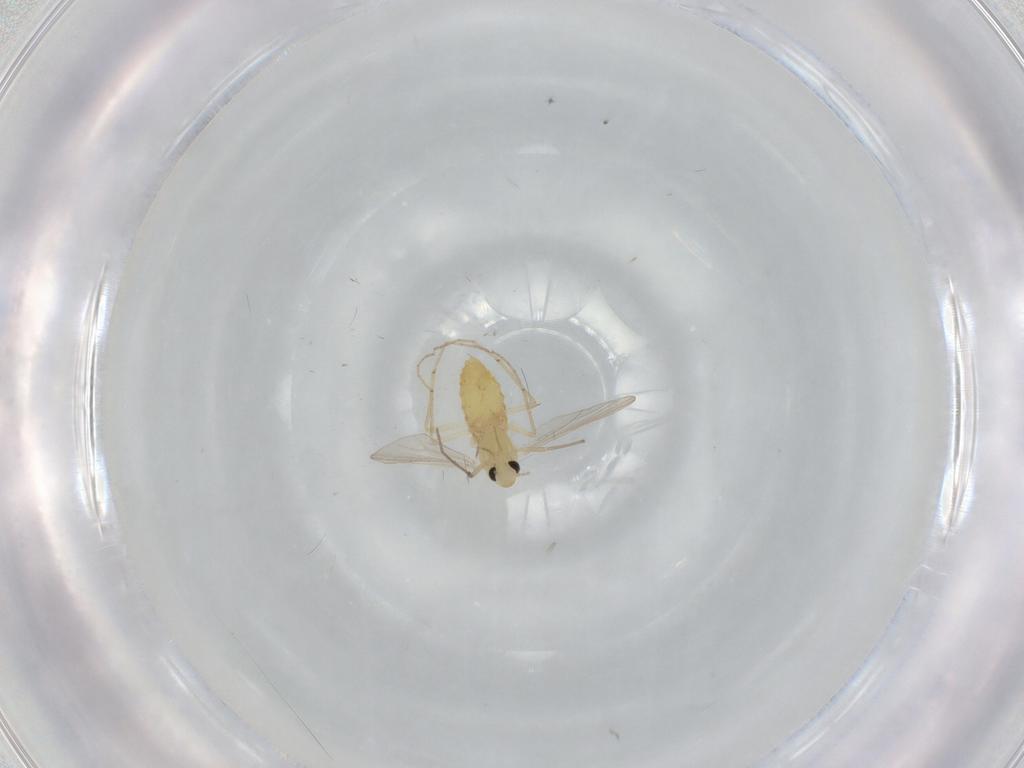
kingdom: Animalia
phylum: Arthropoda
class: Insecta
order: Diptera
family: Chironomidae
